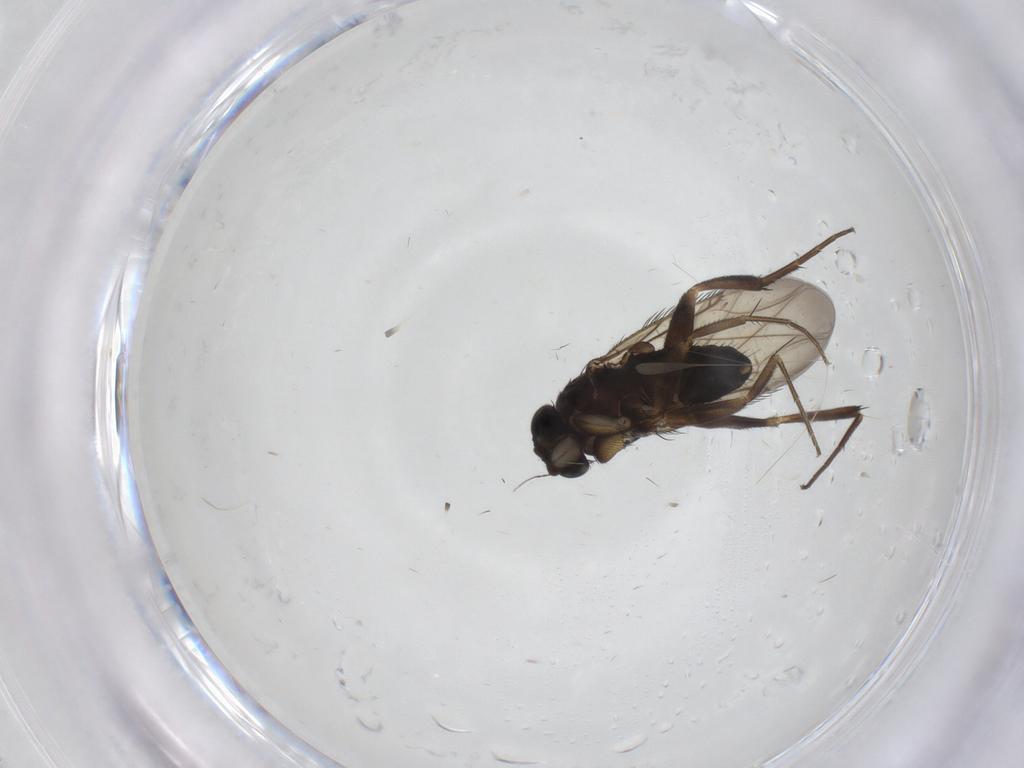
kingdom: Animalia
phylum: Arthropoda
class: Insecta
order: Diptera
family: Phoridae
